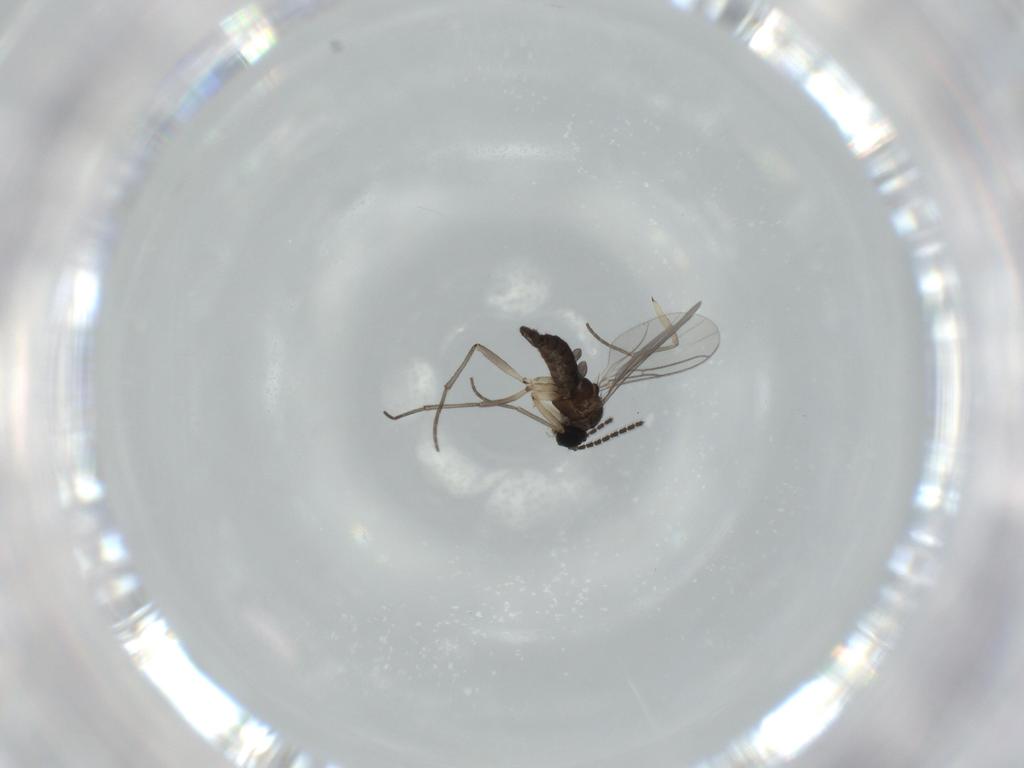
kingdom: Animalia
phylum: Arthropoda
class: Insecta
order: Diptera
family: Sciaridae
